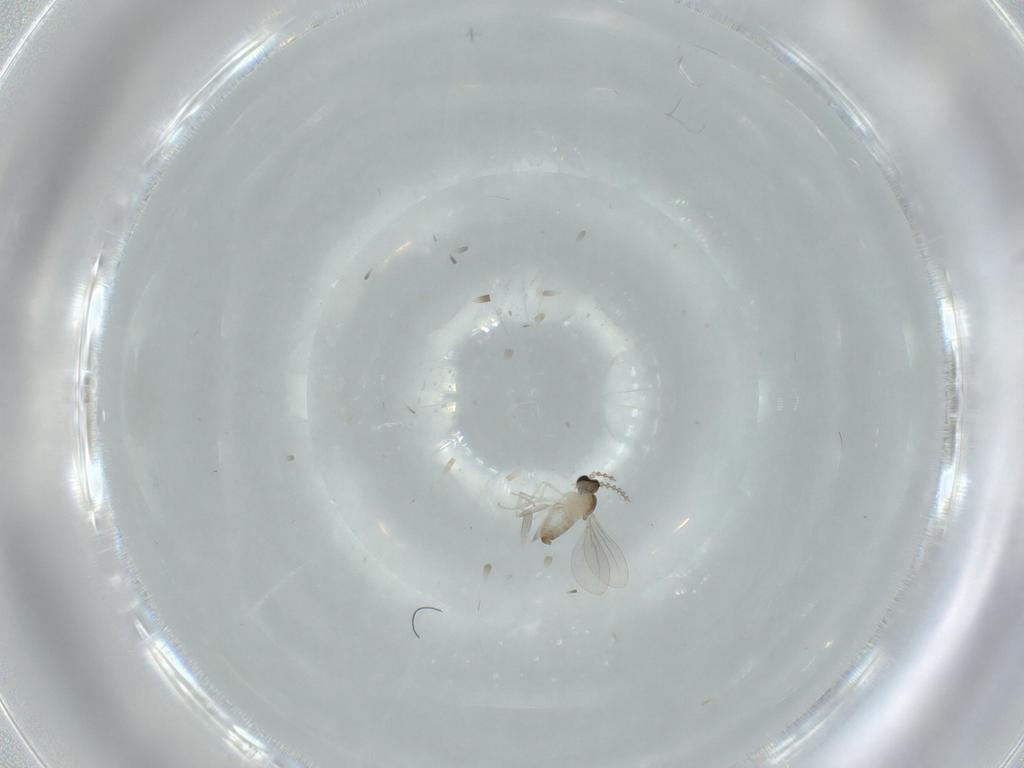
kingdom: Animalia
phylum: Arthropoda
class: Insecta
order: Diptera
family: Cecidomyiidae
